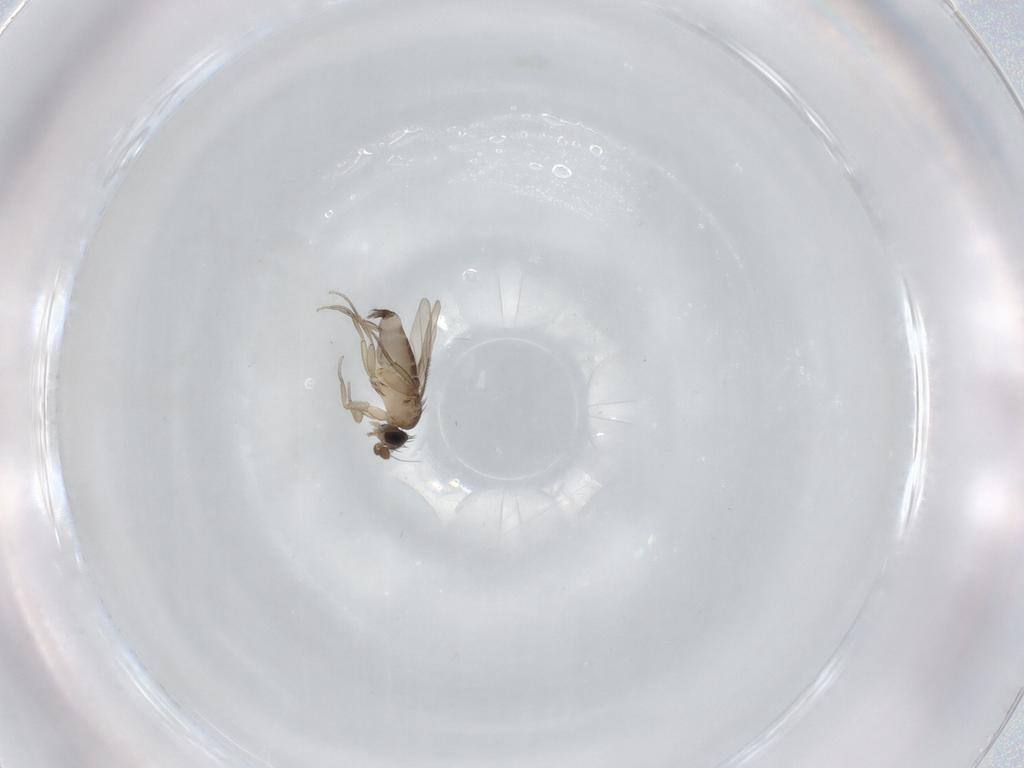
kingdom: Animalia
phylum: Arthropoda
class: Insecta
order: Diptera
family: Phoridae
